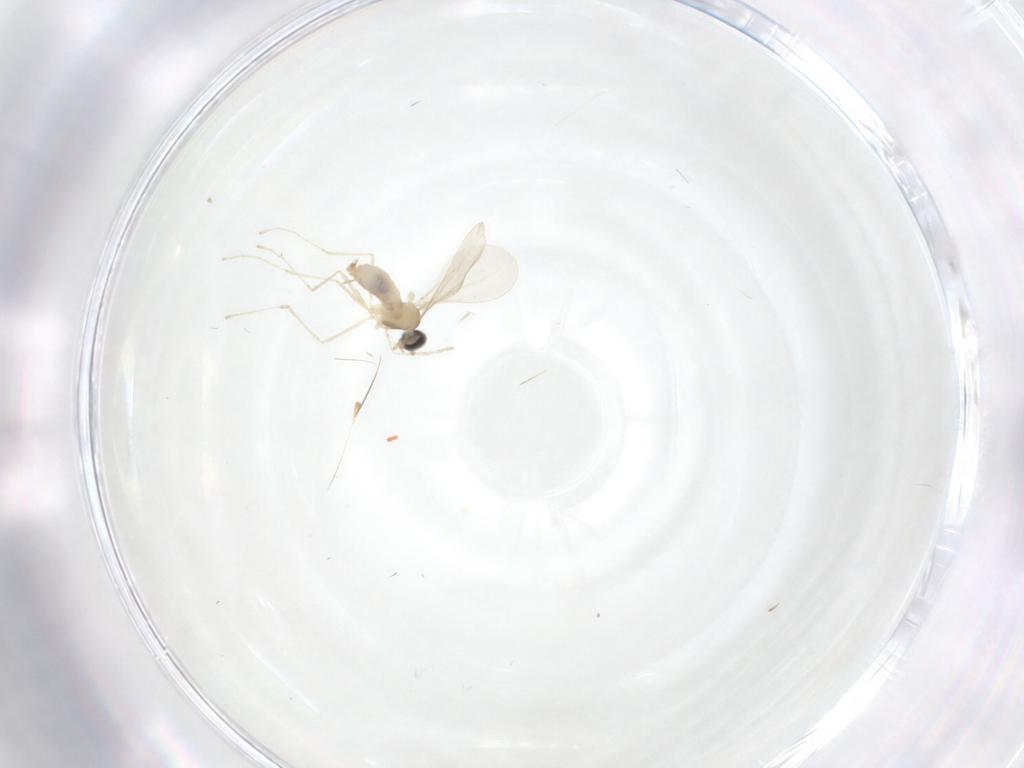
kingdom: Animalia
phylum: Arthropoda
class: Insecta
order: Diptera
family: Cecidomyiidae
